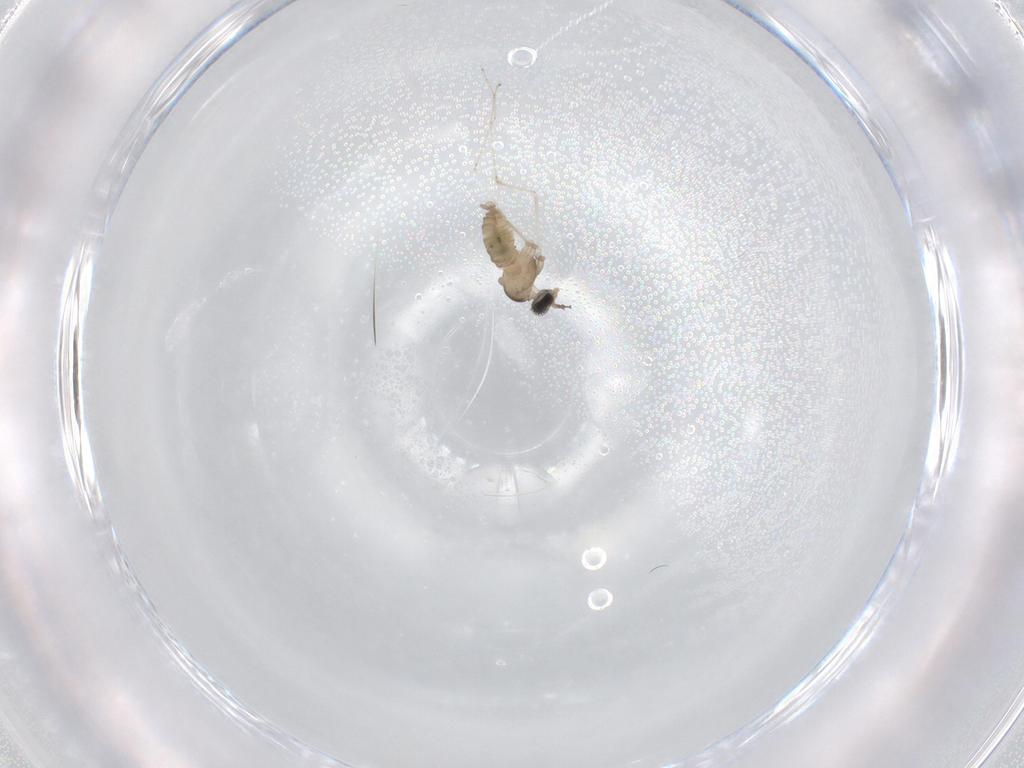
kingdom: Animalia
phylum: Arthropoda
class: Insecta
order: Diptera
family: Cecidomyiidae
